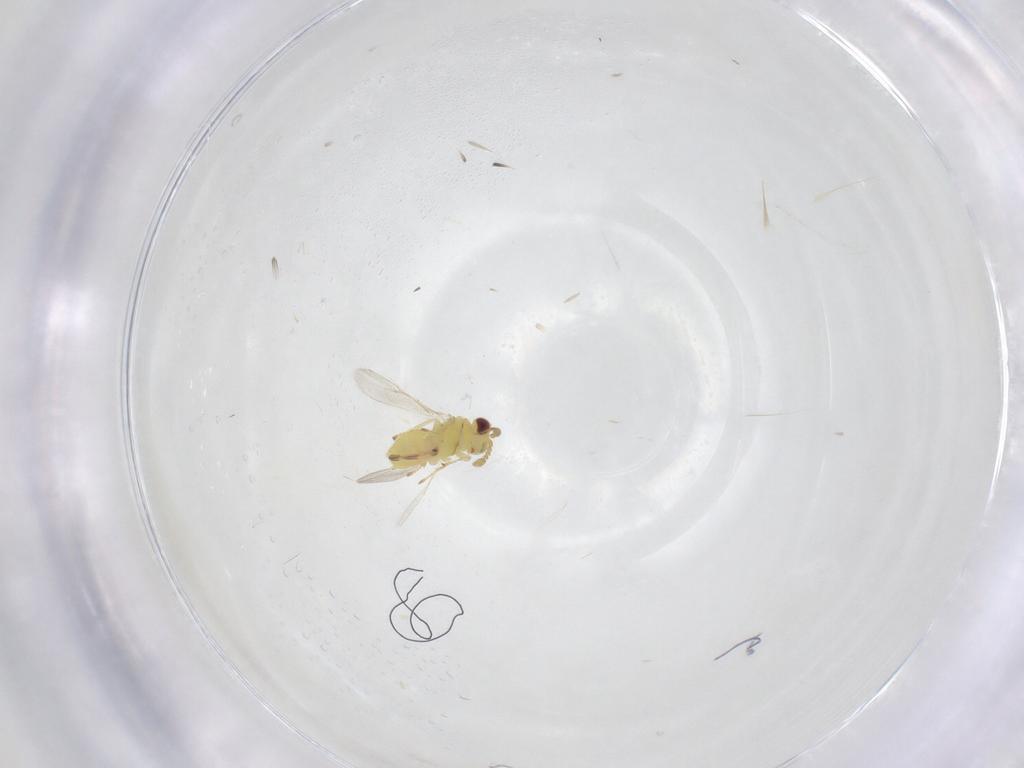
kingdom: Animalia
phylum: Arthropoda
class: Insecta
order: Hymenoptera
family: Eulophidae
